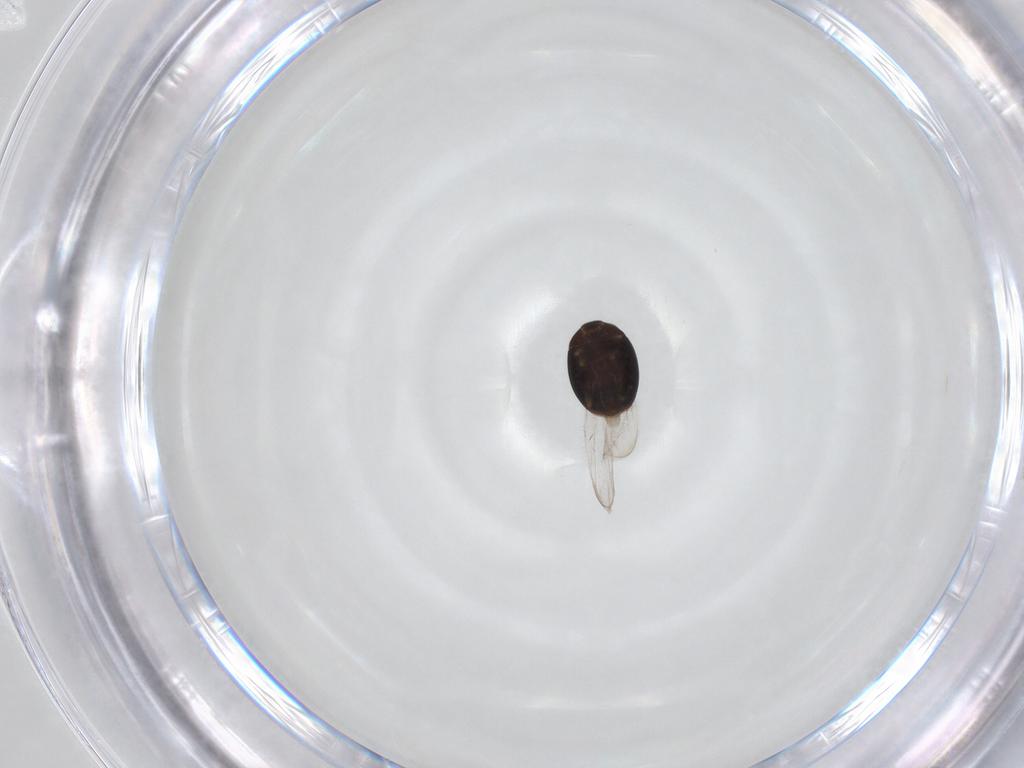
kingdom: Animalia
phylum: Arthropoda
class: Insecta
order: Coleoptera
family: Corylophidae
